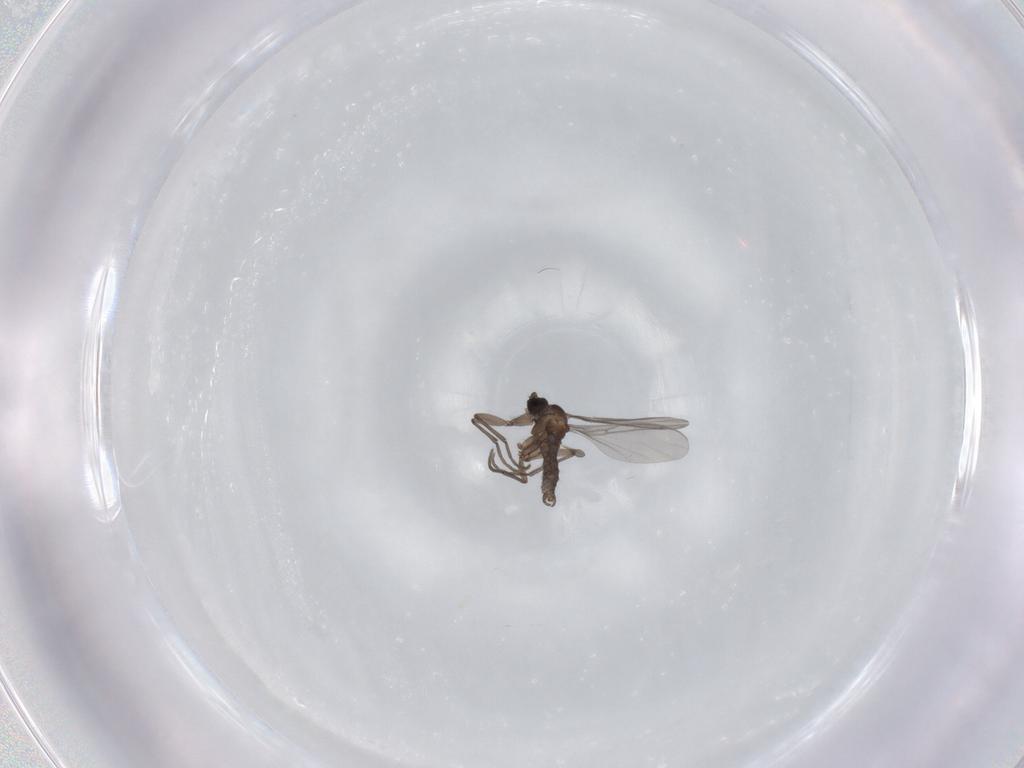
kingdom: Animalia
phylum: Arthropoda
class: Insecta
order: Diptera
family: Sciaridae
